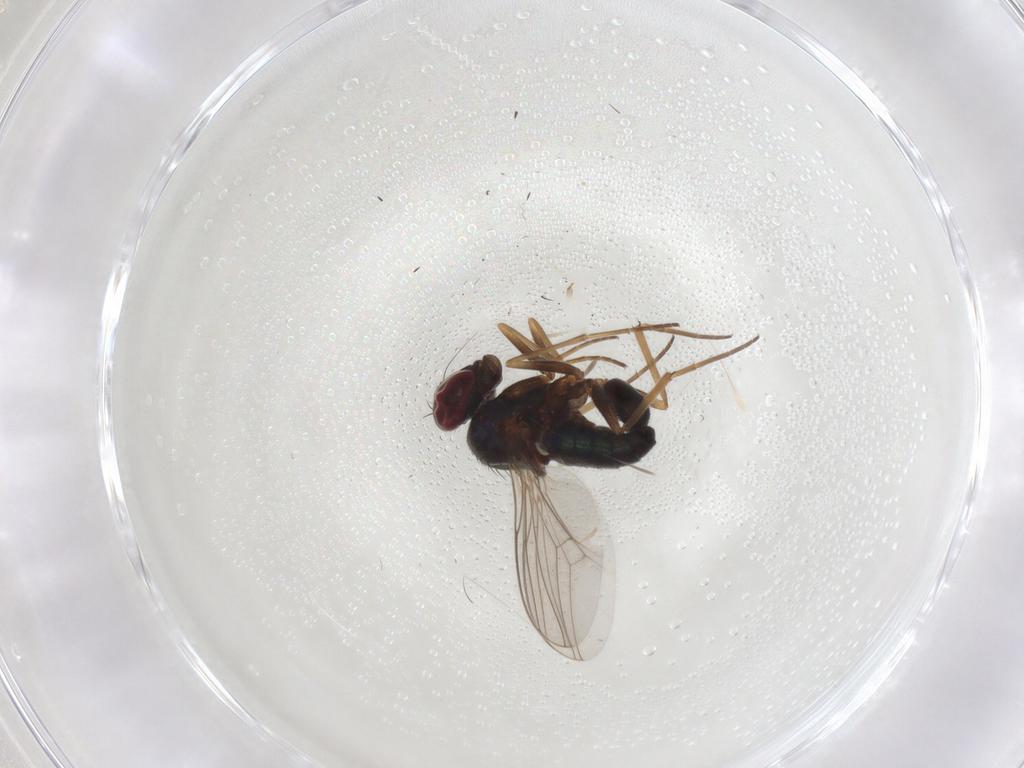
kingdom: Animalia
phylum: Arthropoda
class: Insecta
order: Diptera
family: Dolichopodidae
